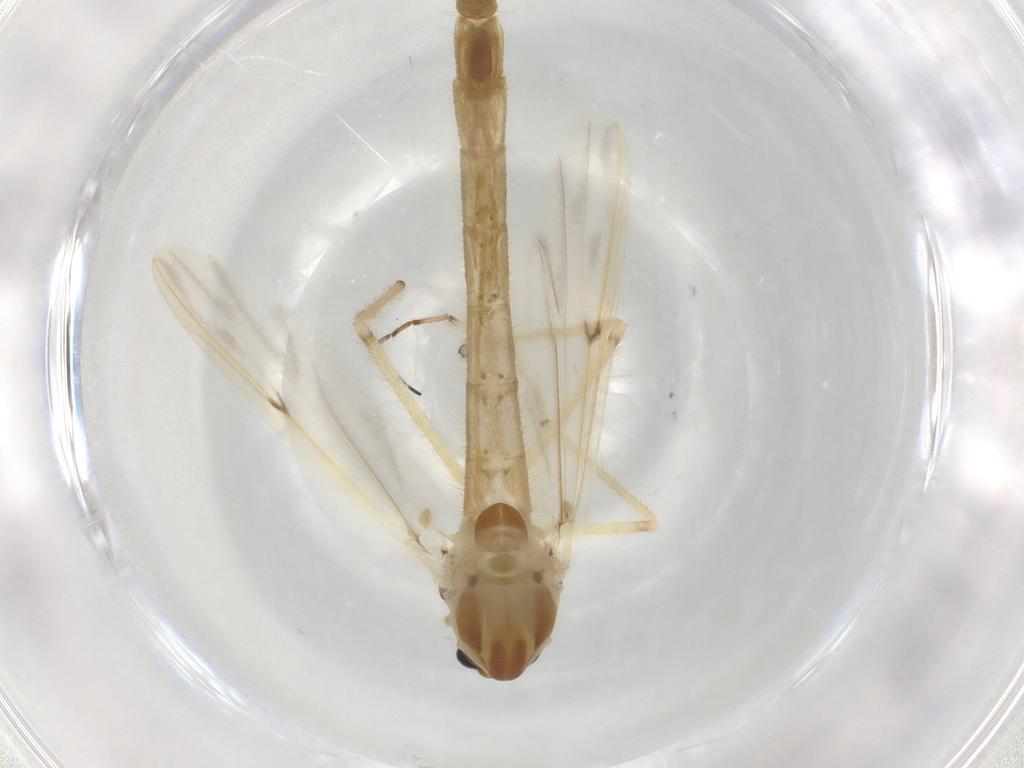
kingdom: Animalia
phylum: Arthropoda
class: Insecta
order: Diptera
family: Chironomidae
